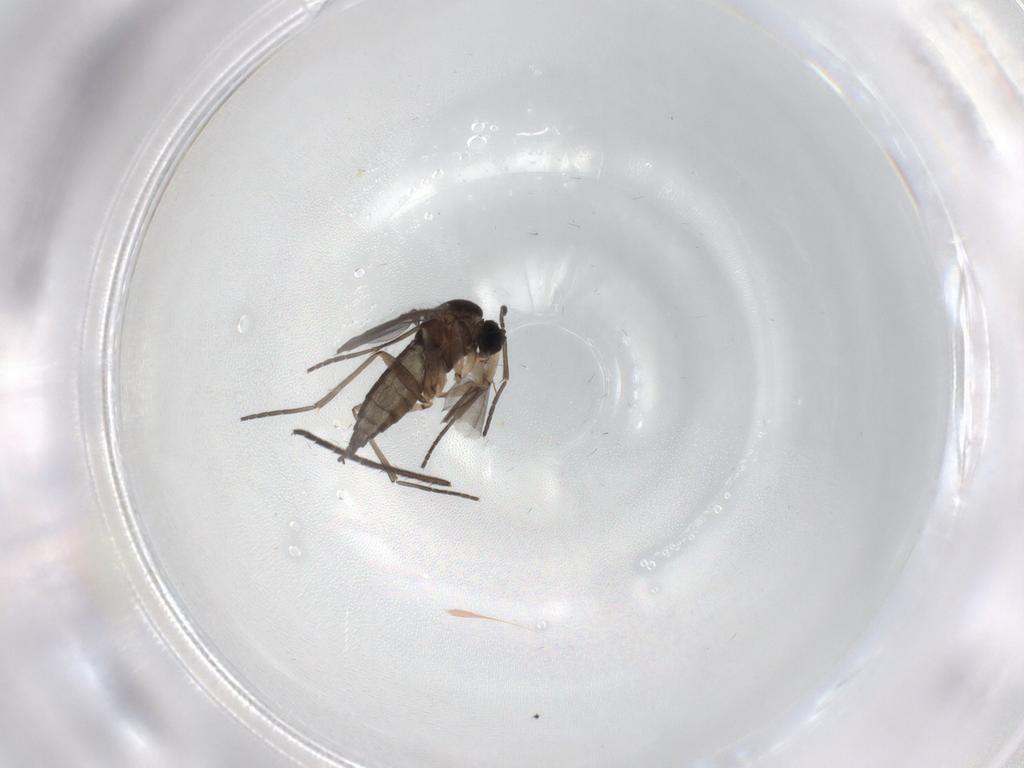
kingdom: Animalia
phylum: Arthropoda
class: Insecta
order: Diptera
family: Sciaridae
